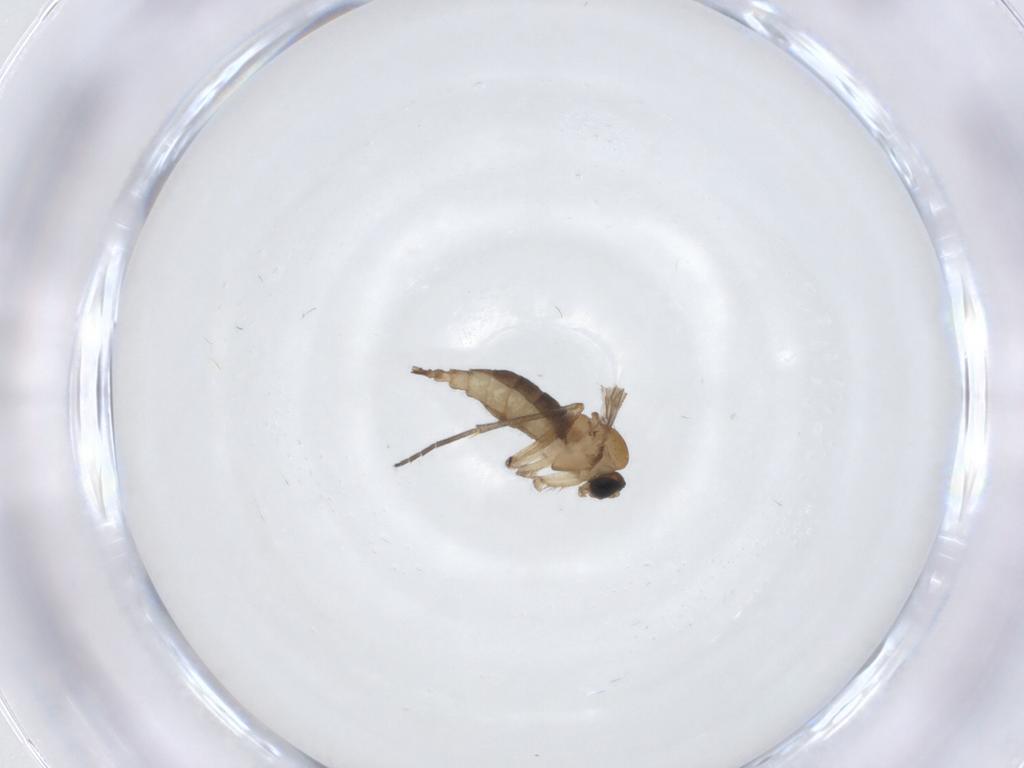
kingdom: Animalia
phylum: Arthropoda
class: Insecta
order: Diptera
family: Sciaridae
